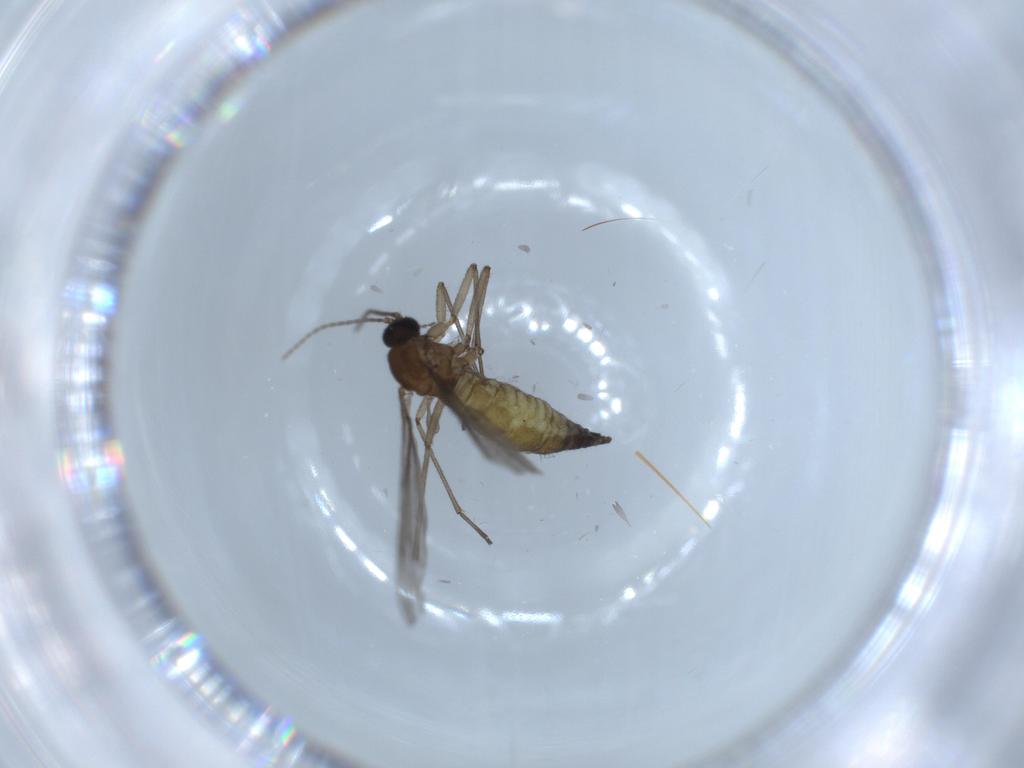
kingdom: Animalia
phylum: Arthropoda
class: Insecta
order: Diptera
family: Sciaridae
